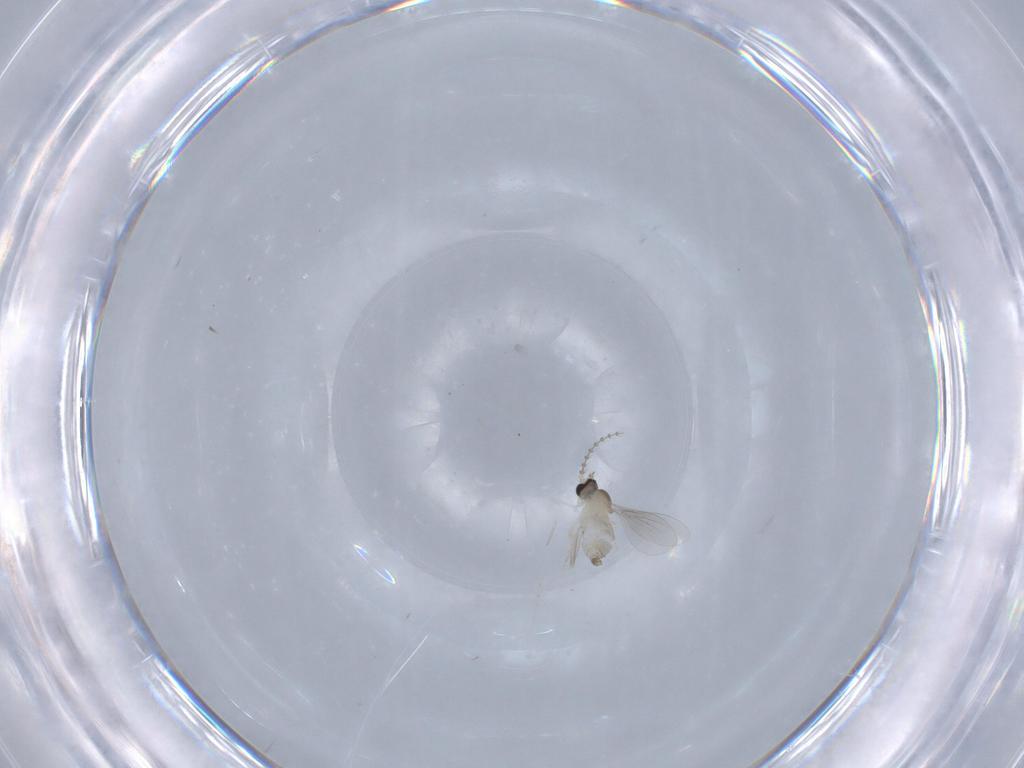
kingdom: Animalia
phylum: Arthropoda
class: Insecta
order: Diptera
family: Cecidomyiidae
